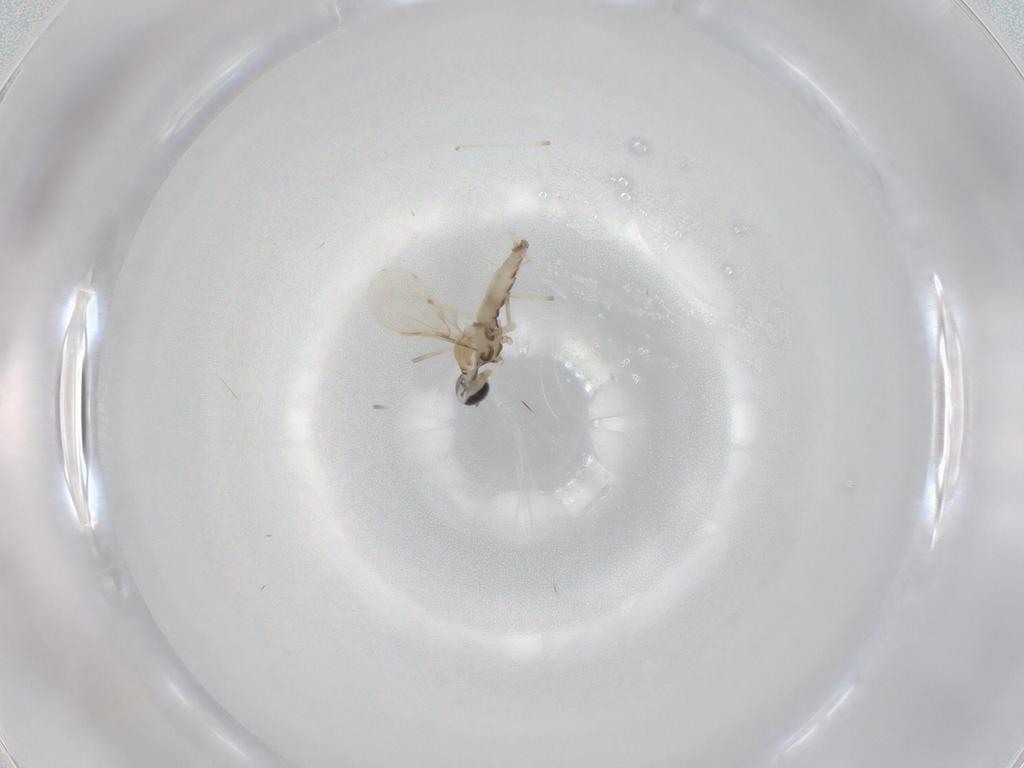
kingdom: Animalia
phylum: Arthropoda
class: Insecta
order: Diptera
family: Cecidomyiidae
